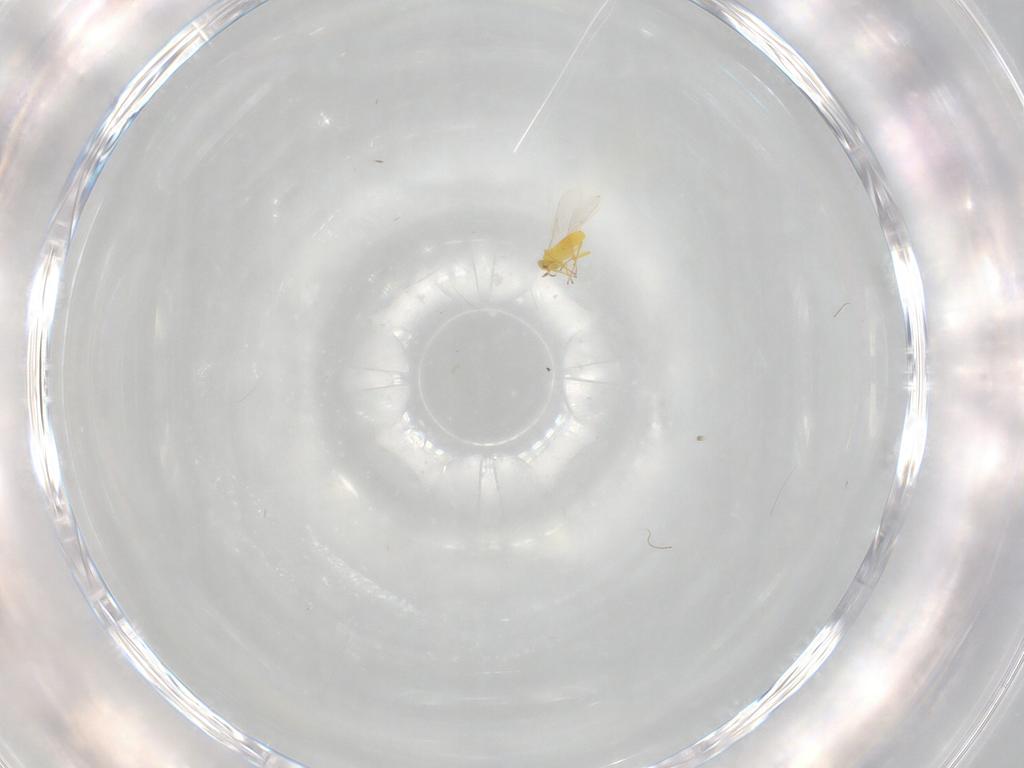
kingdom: Animalia
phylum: Arthropoda
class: Insecta
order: Hymenoptera
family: Aphelinidae
